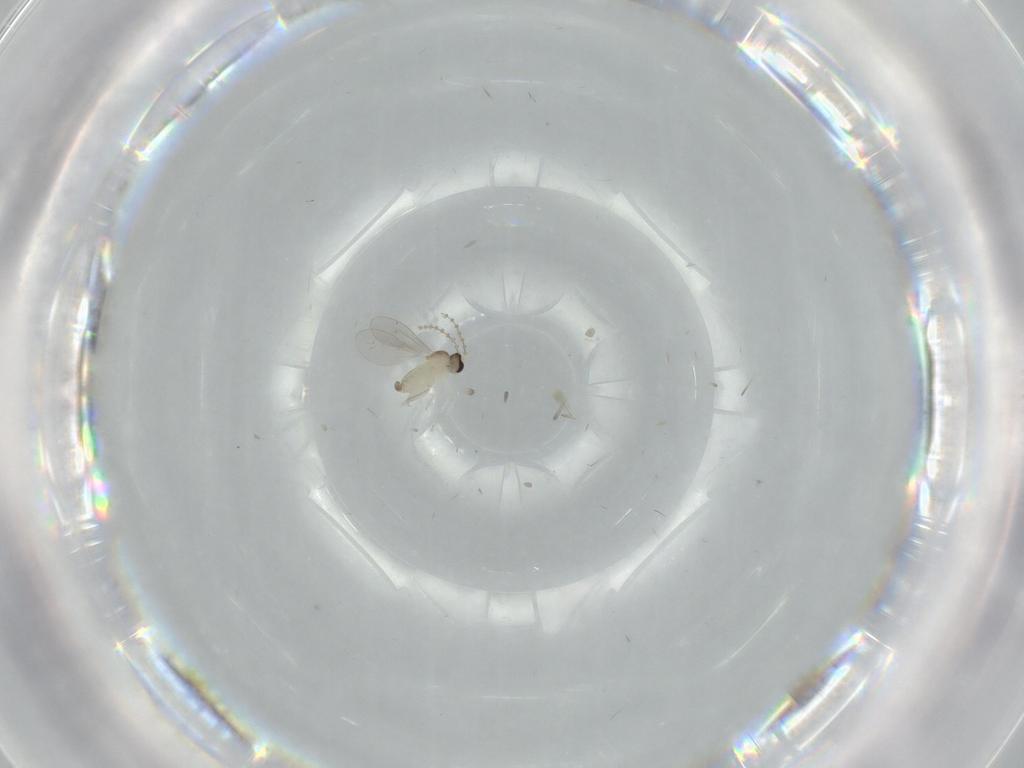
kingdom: Animalia
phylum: Arthropoda
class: Insecta
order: Diptera
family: Cecidomyiidae
